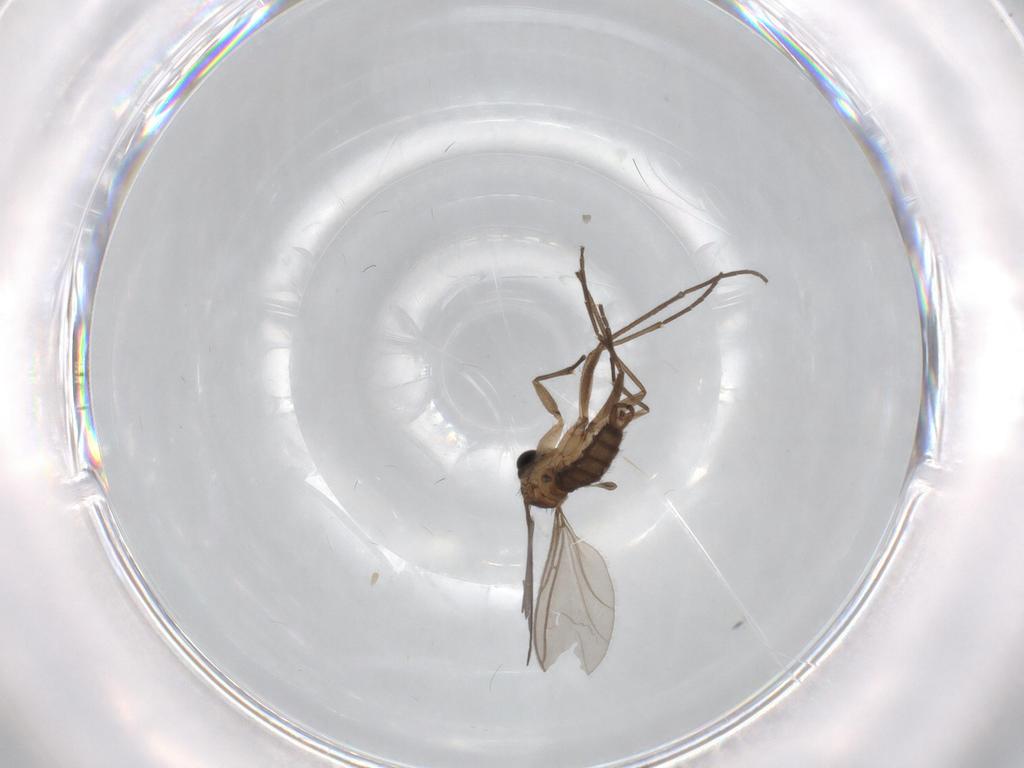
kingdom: Animalia
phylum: Arthropoda
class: Insecta
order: Diptera
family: Sciaridae
